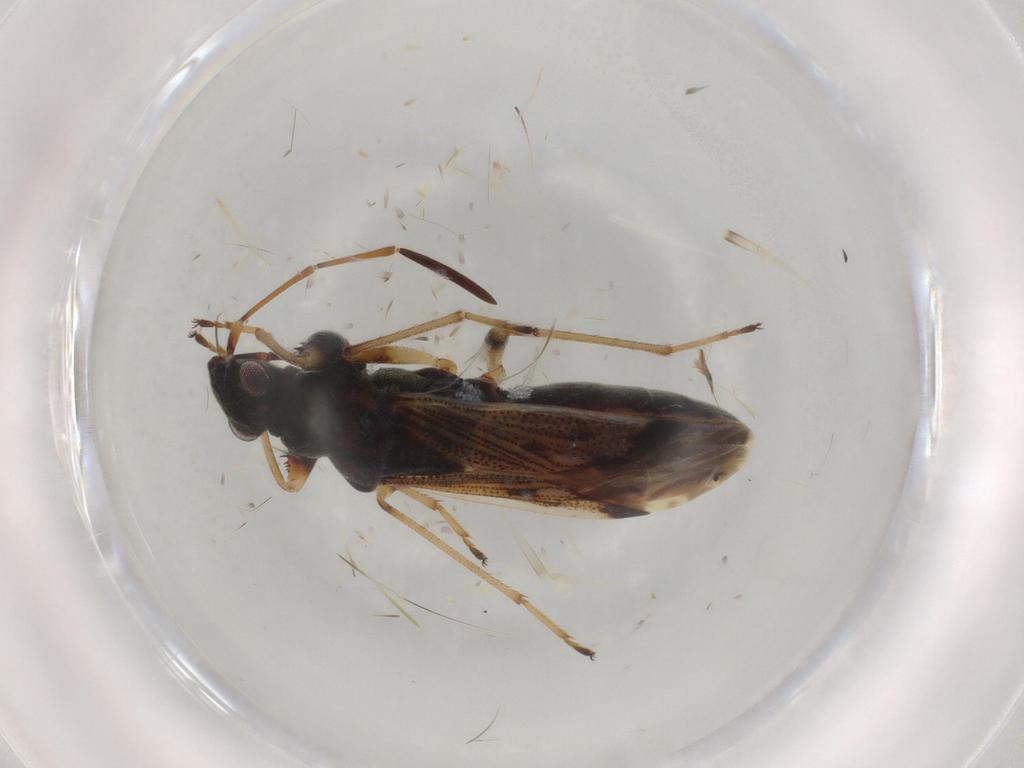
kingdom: Animalia
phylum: Arthropoda
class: Insecta
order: Hemiptera
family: Rhyparochromidae
